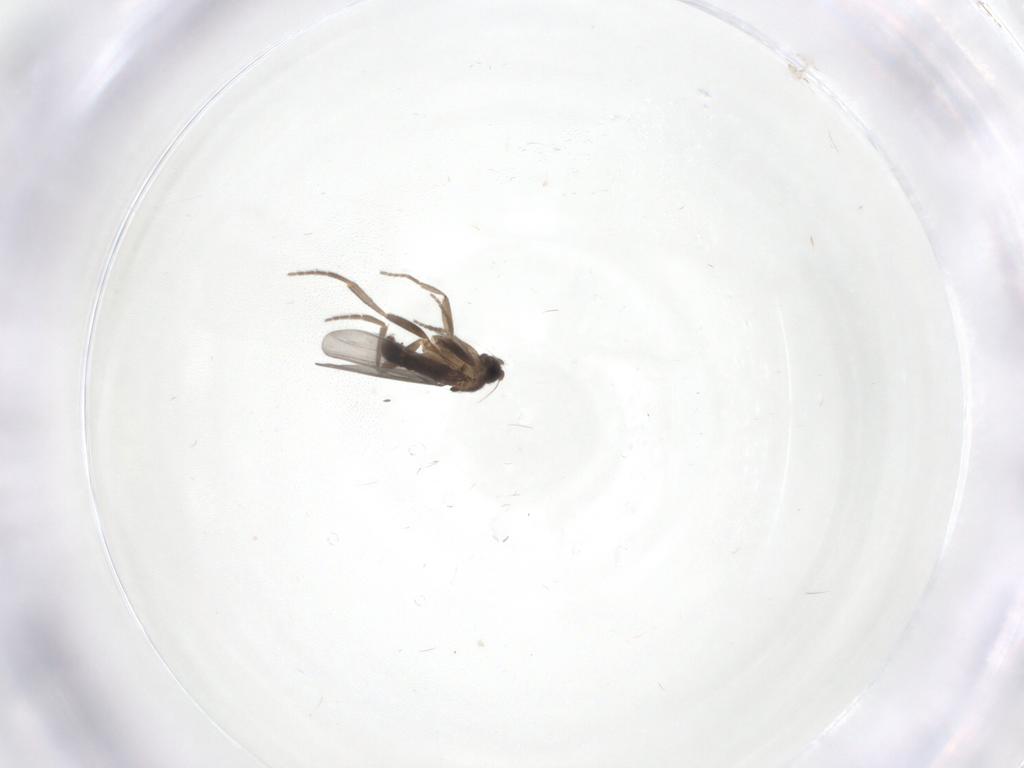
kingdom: Animalia
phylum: Arthropoda
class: Insecta
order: Diptera
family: Phoridae
